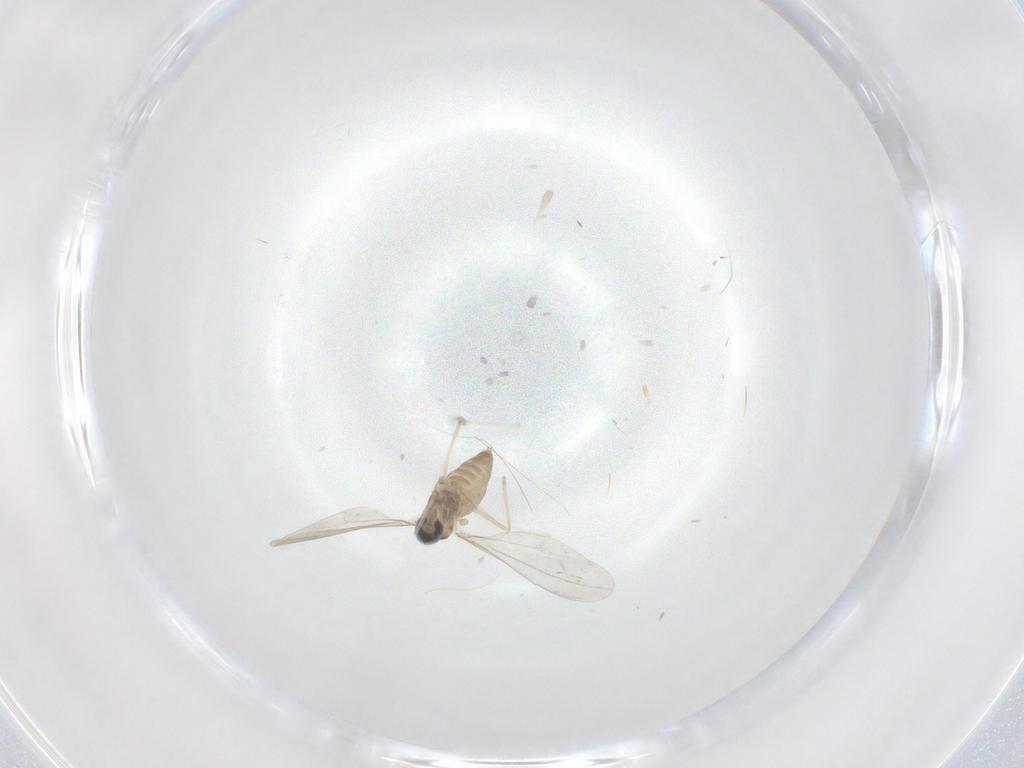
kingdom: Animalia
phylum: Arthropoda
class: Insecta
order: Diptera
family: Cecidomyiidae
